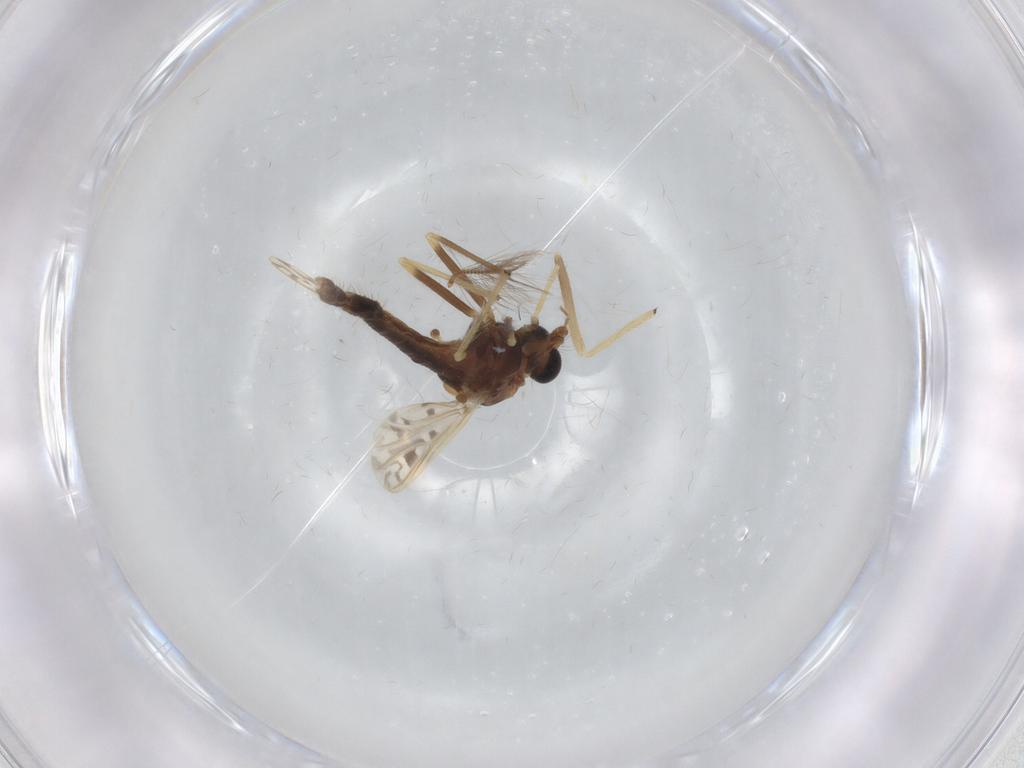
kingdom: Animalia
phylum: Arthropoda
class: Insecta
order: Diptera
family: Chironomidae
